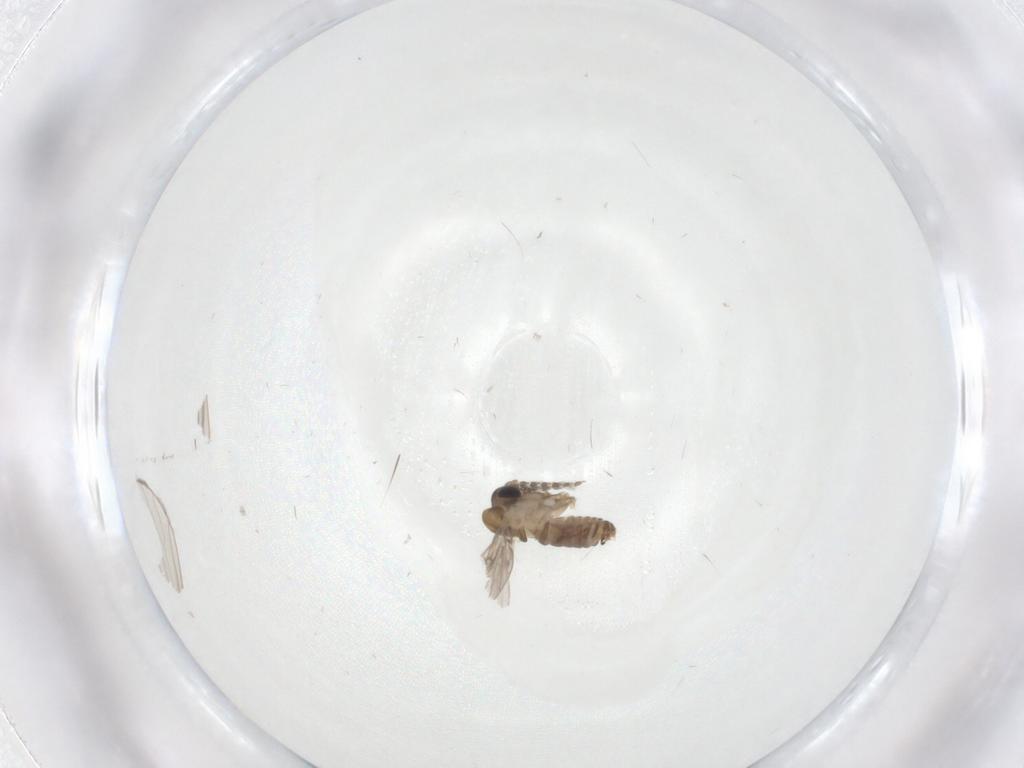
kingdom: Animalia
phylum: Arthropoda
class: Insecta
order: Diptera
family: Psychodidae
